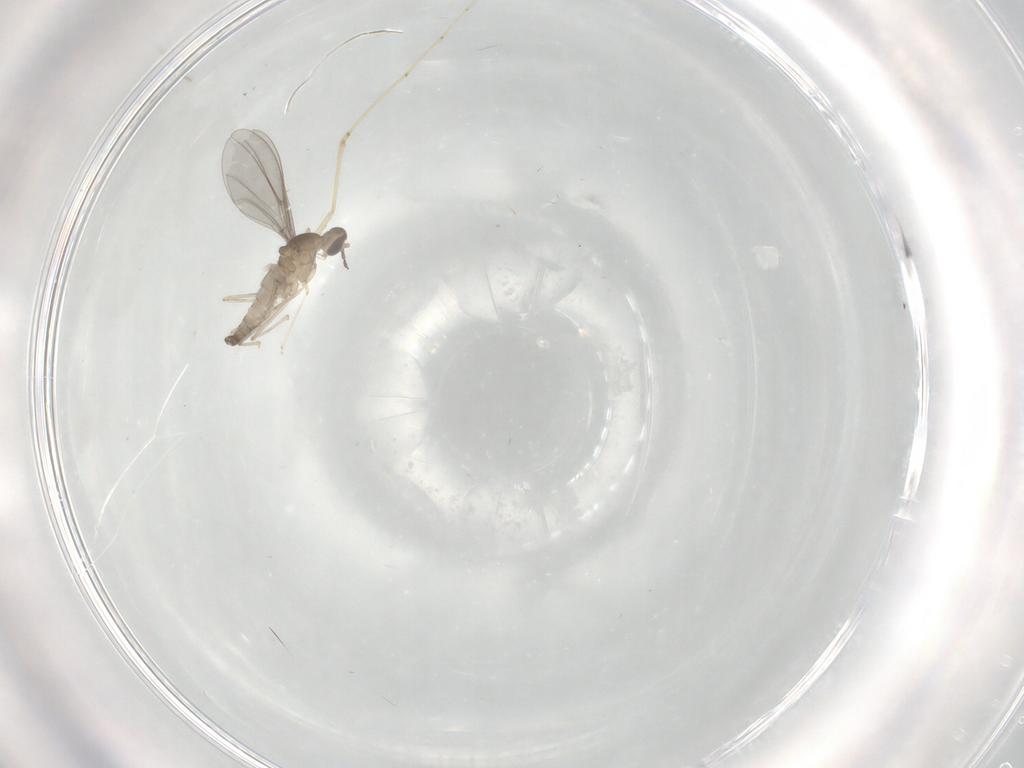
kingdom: Animalia
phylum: Arthropoda
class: Insecta
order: Diptera
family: Cecidomyiidae
